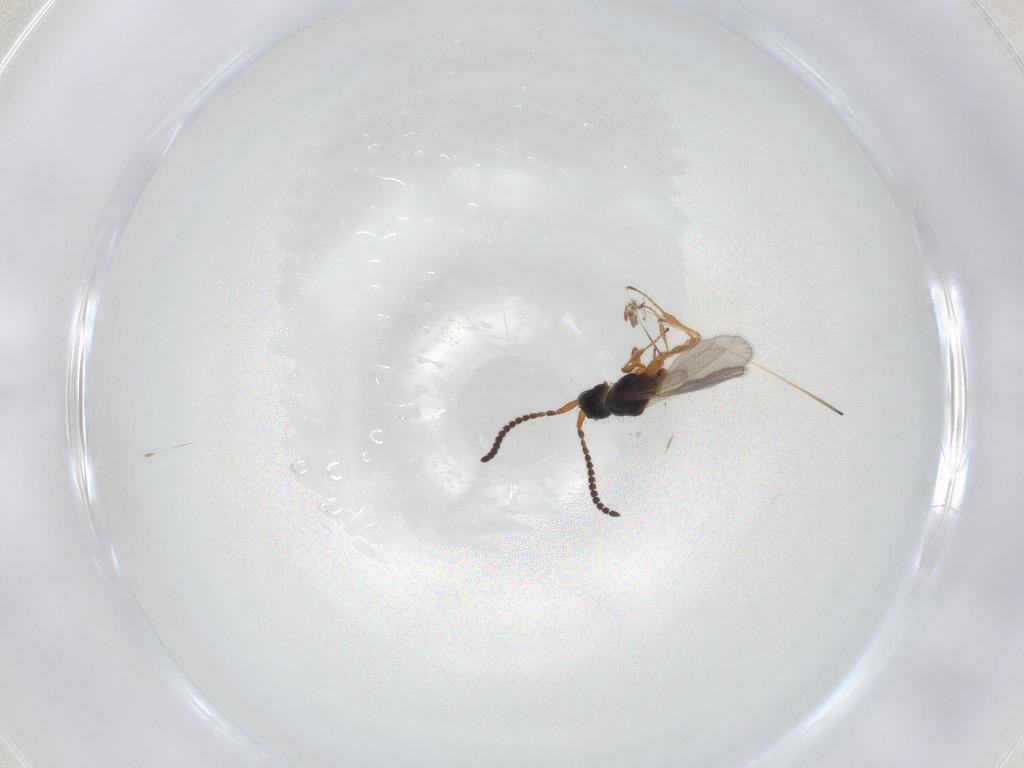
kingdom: Animalia
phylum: Arthropoda
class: Insecta
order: Hymenoptera
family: Diapriidae
